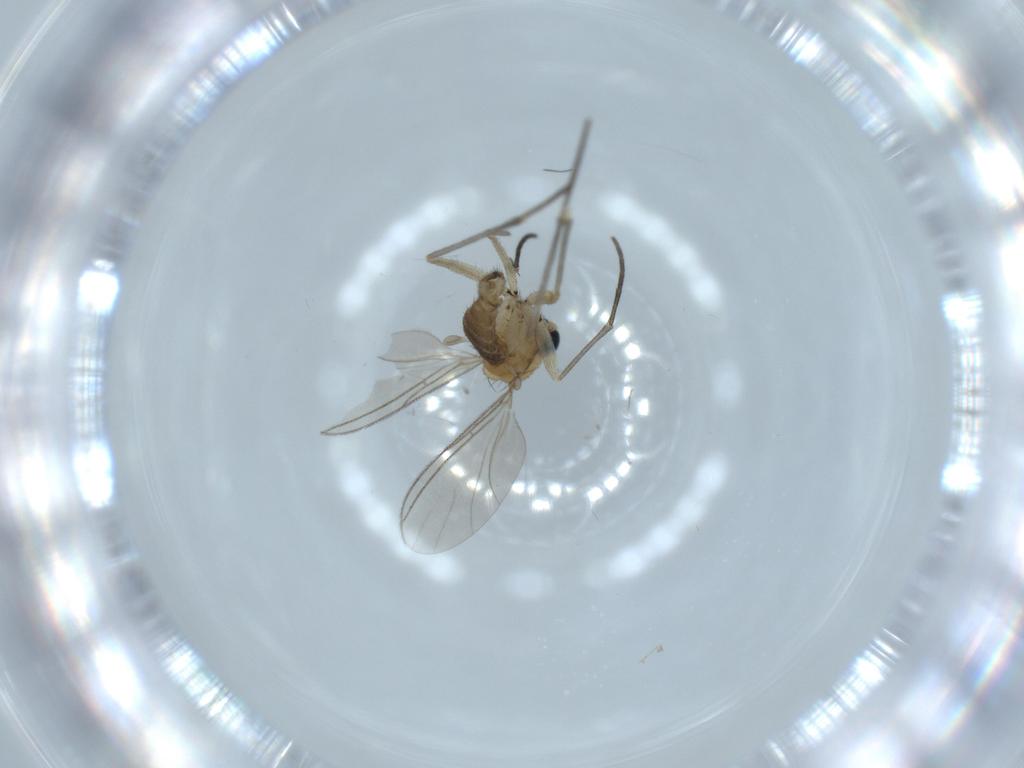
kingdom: Animalia
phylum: Arthropoda
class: Insecta
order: Diptera
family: Sciaridae
